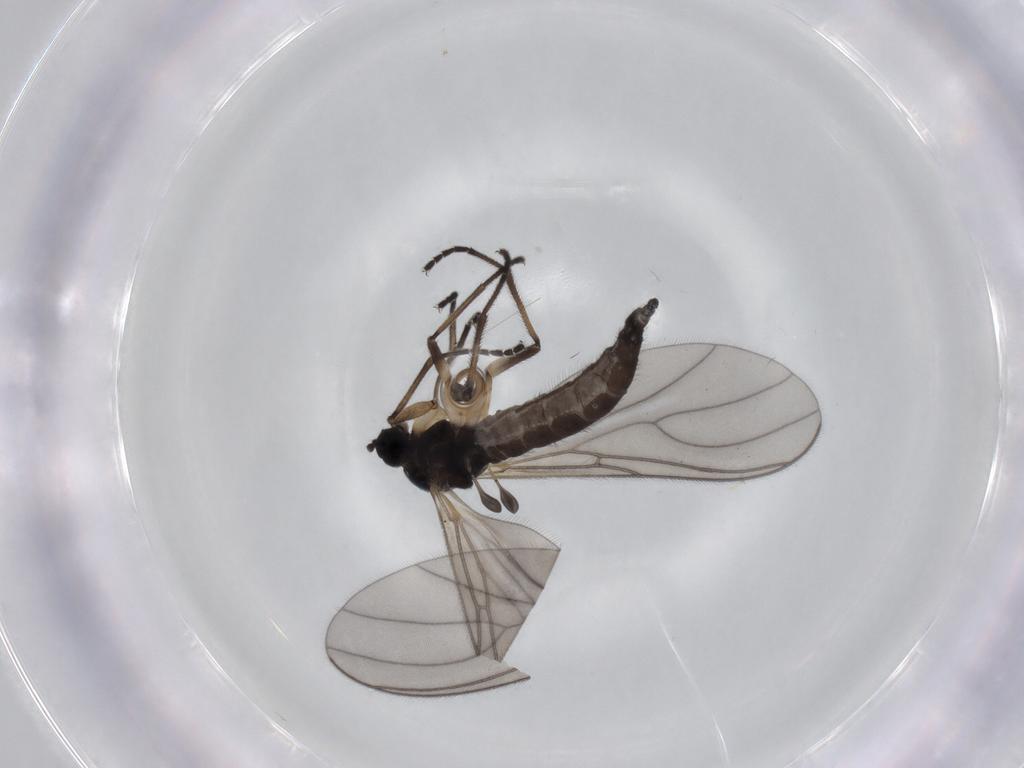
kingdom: Animalia
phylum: Arthropoda
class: Insecta
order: Diptera
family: Sciaridae
